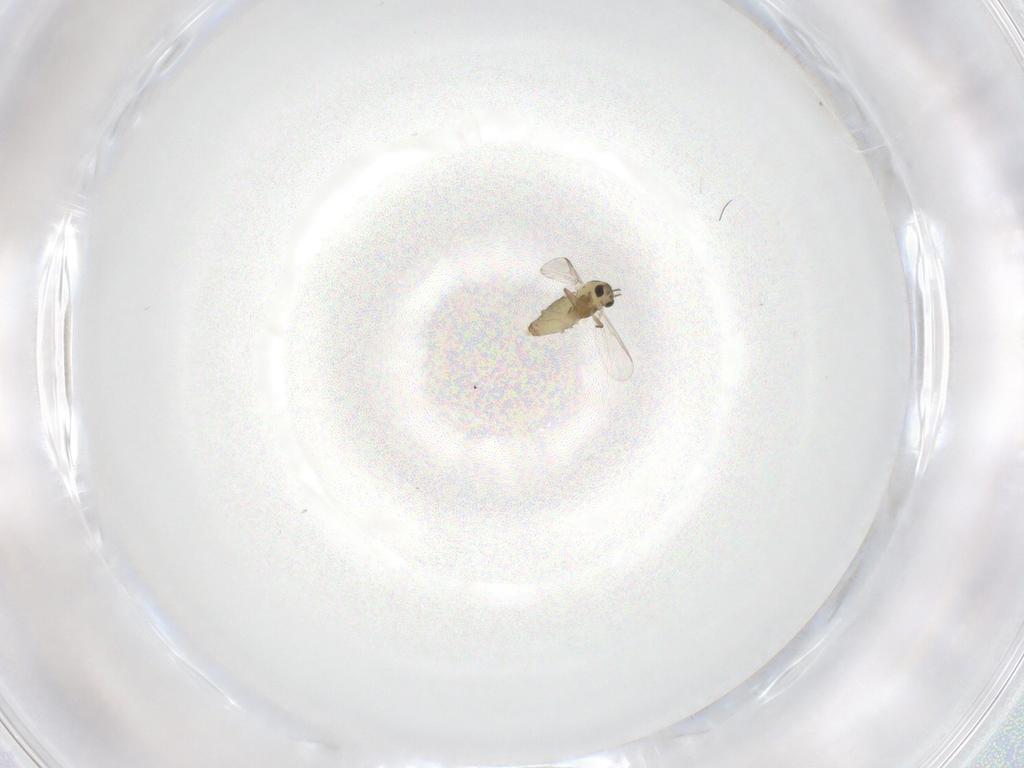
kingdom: Animalia
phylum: Arthropoda
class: Insecta
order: Diptera
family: Chironomidae
